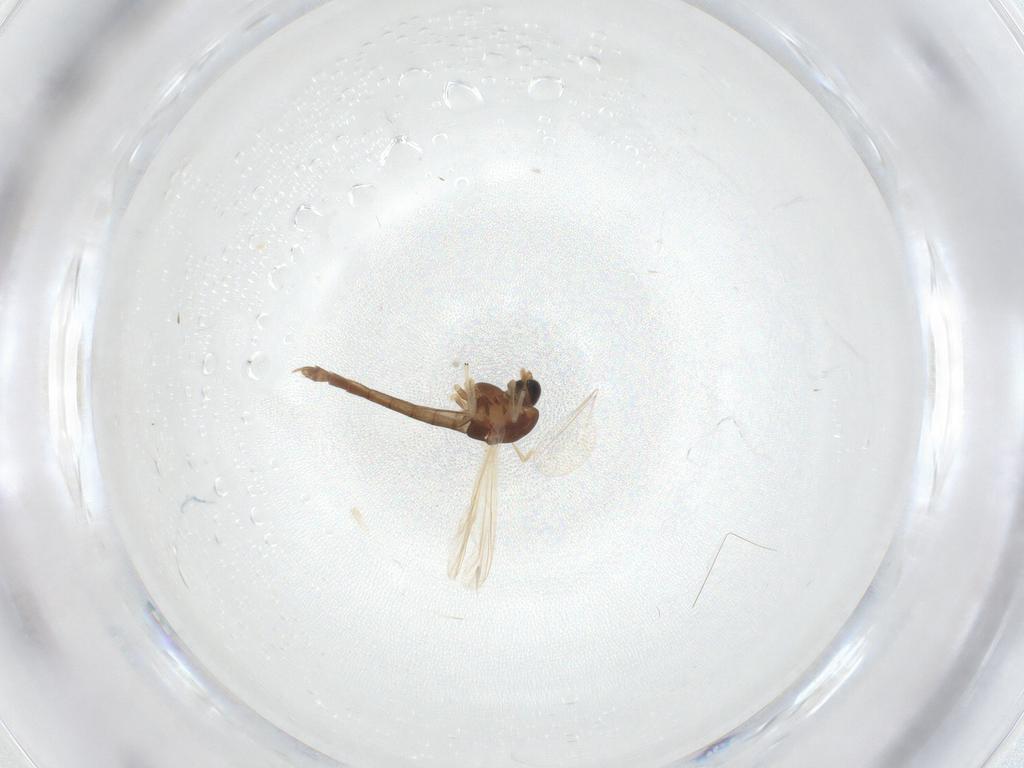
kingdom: Animalia
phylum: Arthropoda
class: Insecta
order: Diptera
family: Chironomidae
